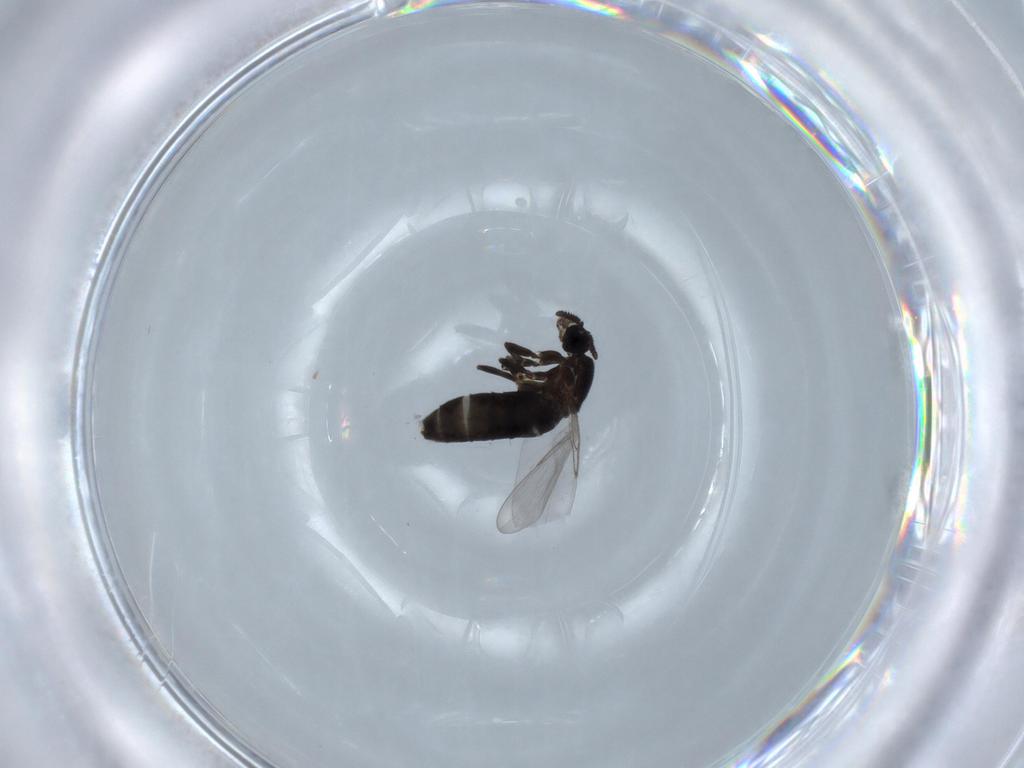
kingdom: Animalia
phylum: Arthropoda
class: Insecta
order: Diptera
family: Scatopsidae
